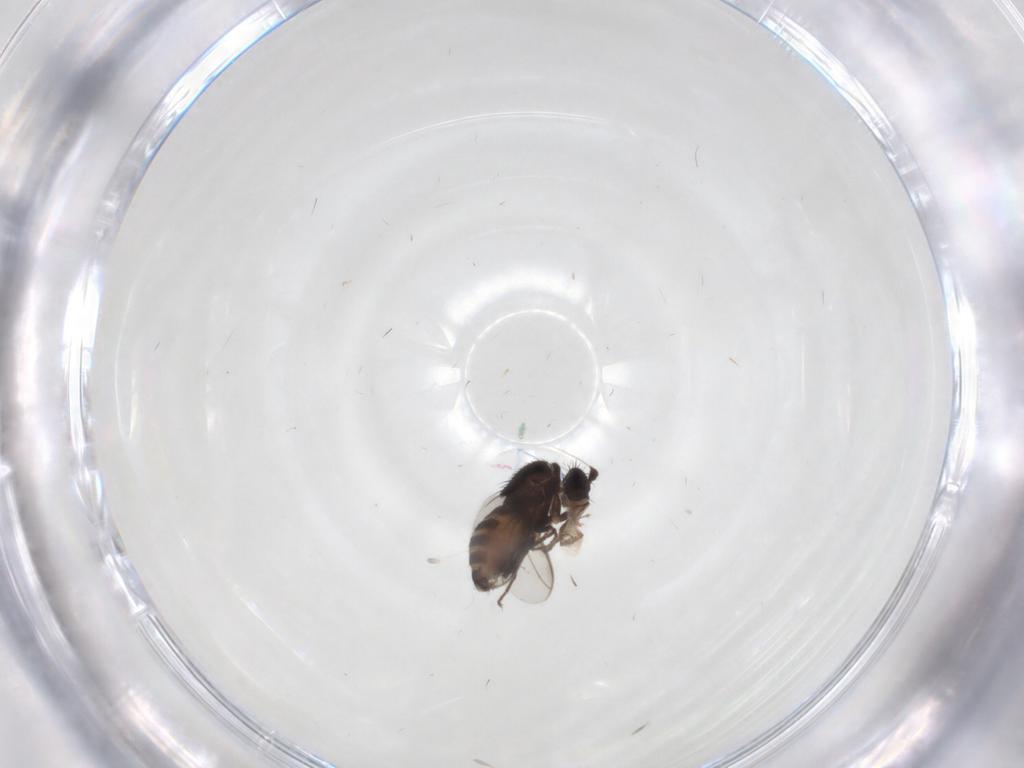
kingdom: Animalia
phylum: Arthropoda
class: Insecta
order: Diptera
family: Sphaeroceridae
